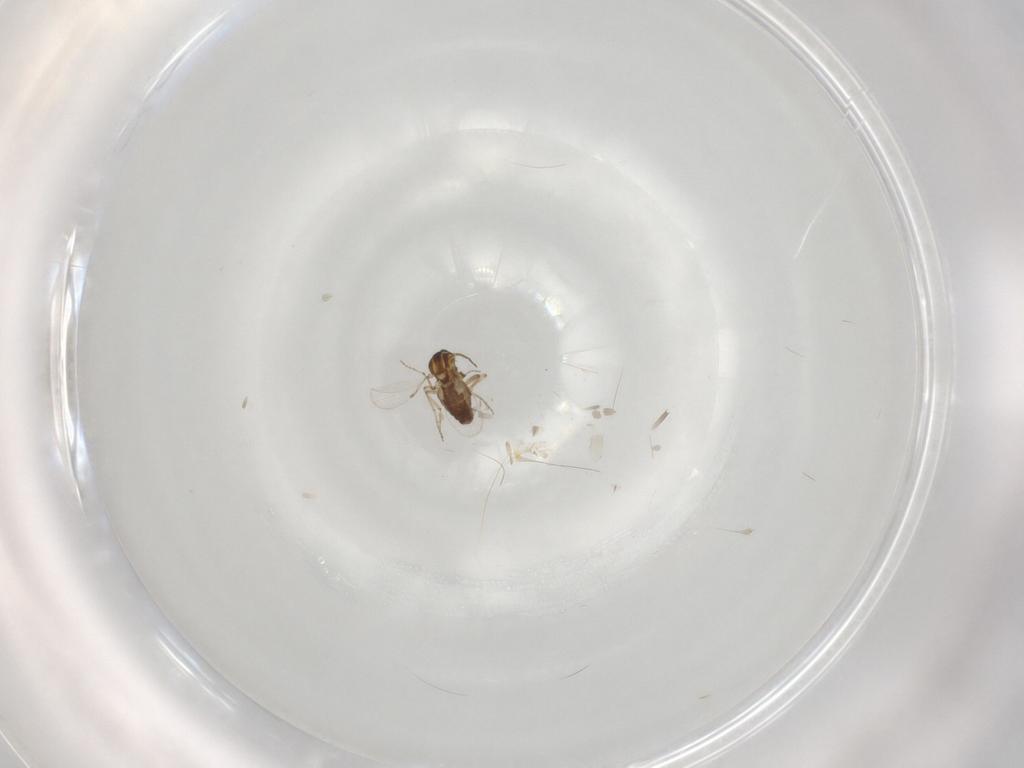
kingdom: Animalia
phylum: Arthropoda
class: Insecta
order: Diptera
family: Ceratopogonidae
